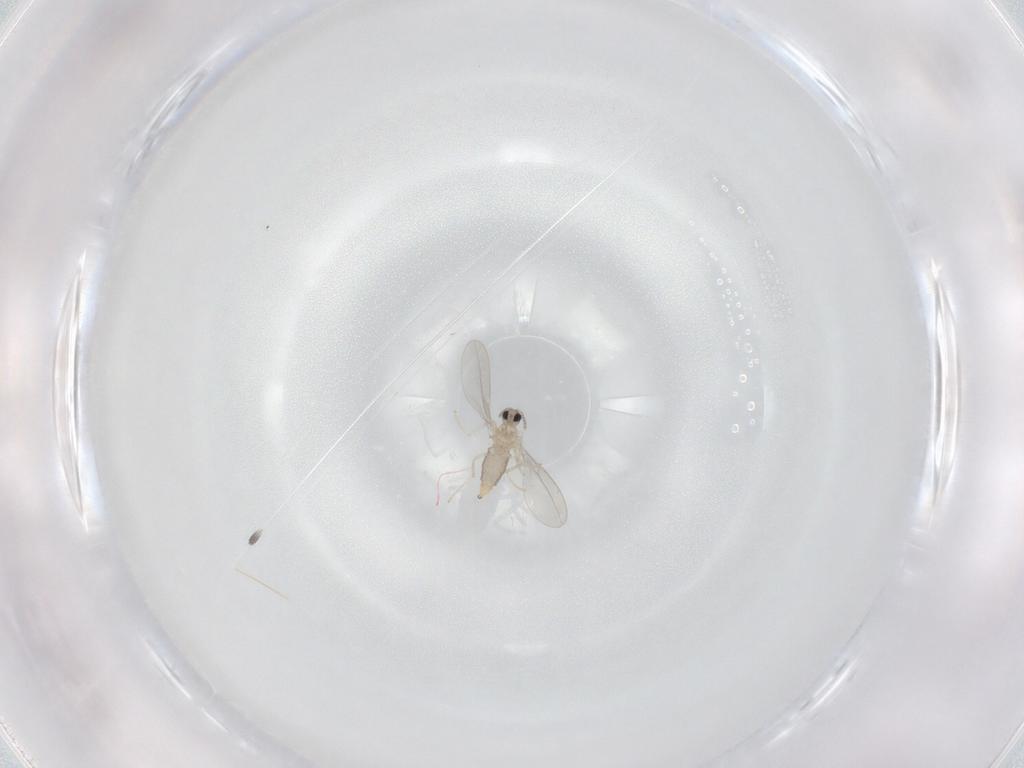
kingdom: Animalia
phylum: Arthropoda
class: Insecta
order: Diptera
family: Cecidomyiidae
